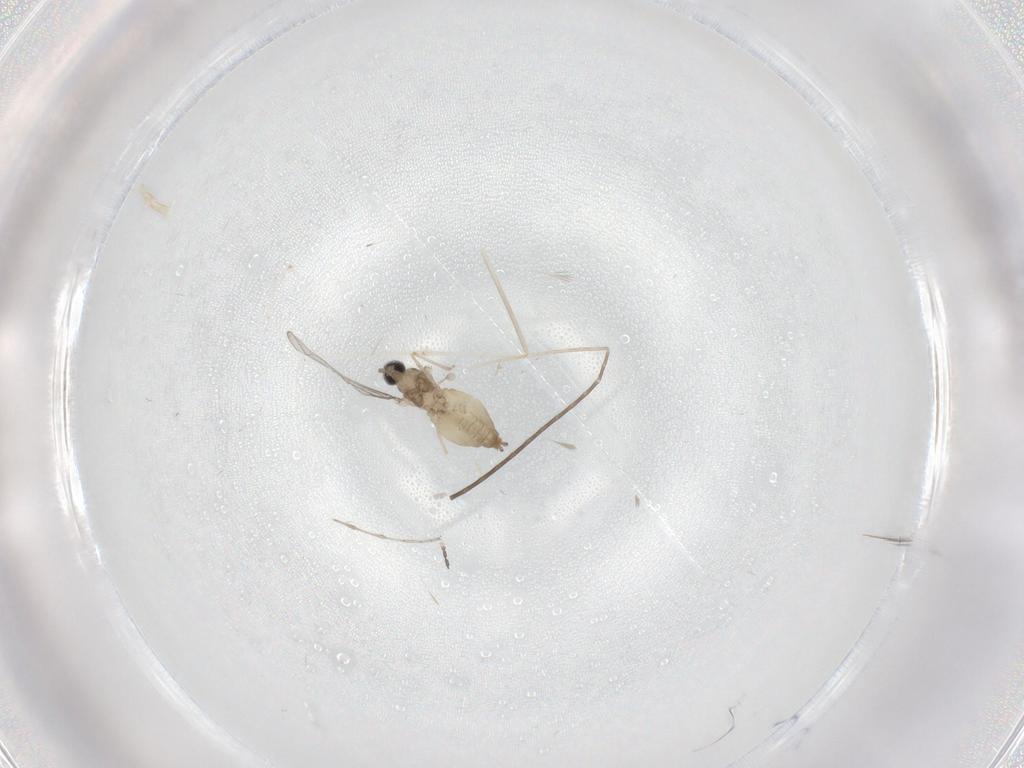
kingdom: Animalia
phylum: Arthropoda
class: Insecta
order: Diptera
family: Cecidomyiidae
